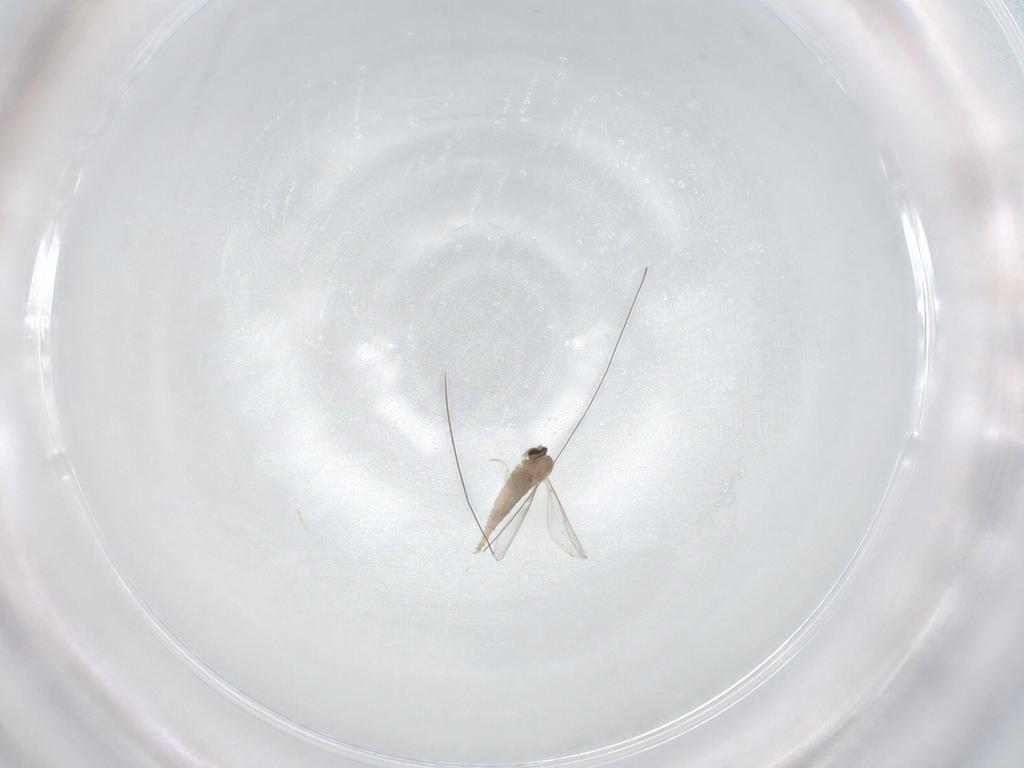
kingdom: Animalia
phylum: Arthropoda
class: Insecta
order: Diptera
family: Cecidomyiidae
